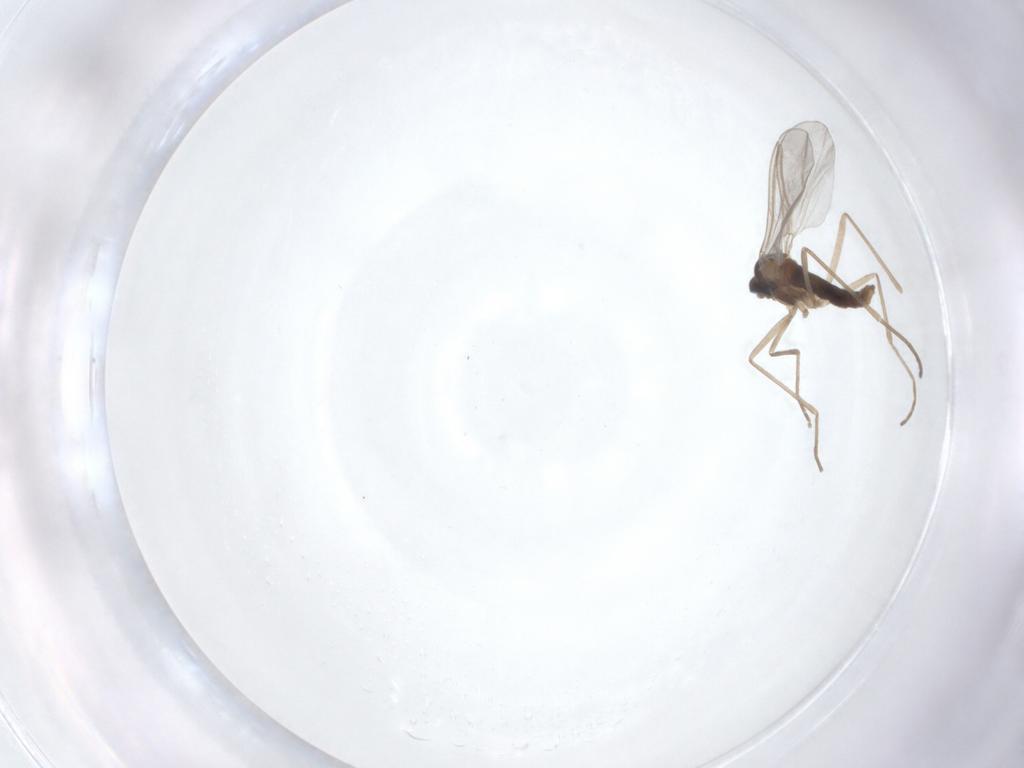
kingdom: Animalia
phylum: Arthropoda
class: Insecta
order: Diptera
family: Cecidomyiidae
